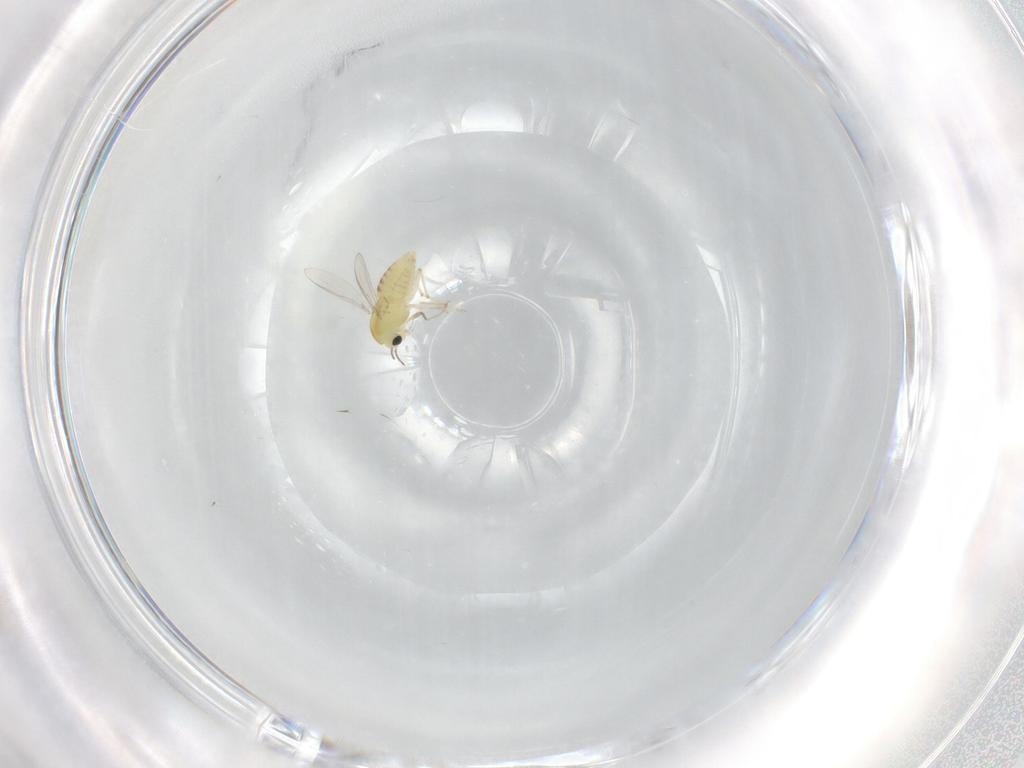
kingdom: Animalia
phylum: Arthropoda
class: Insecta
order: Diptera
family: Chironomidae
